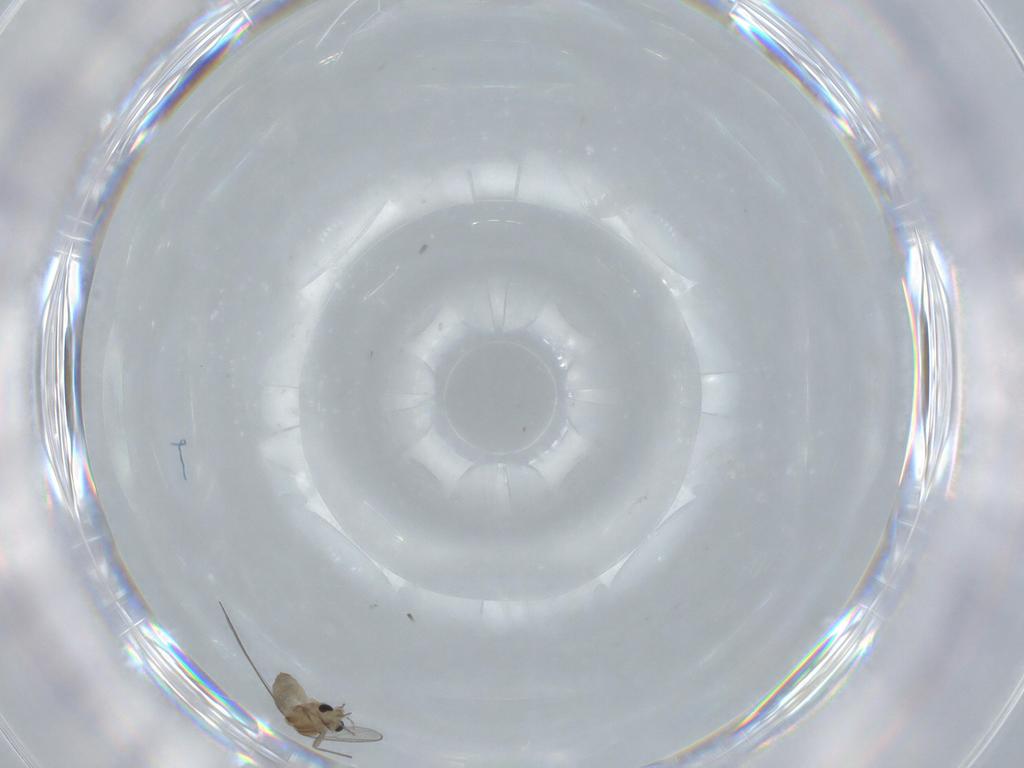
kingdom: Animalia
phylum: Arthropoda
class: Insecta
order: Diptera
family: Chironomidae
